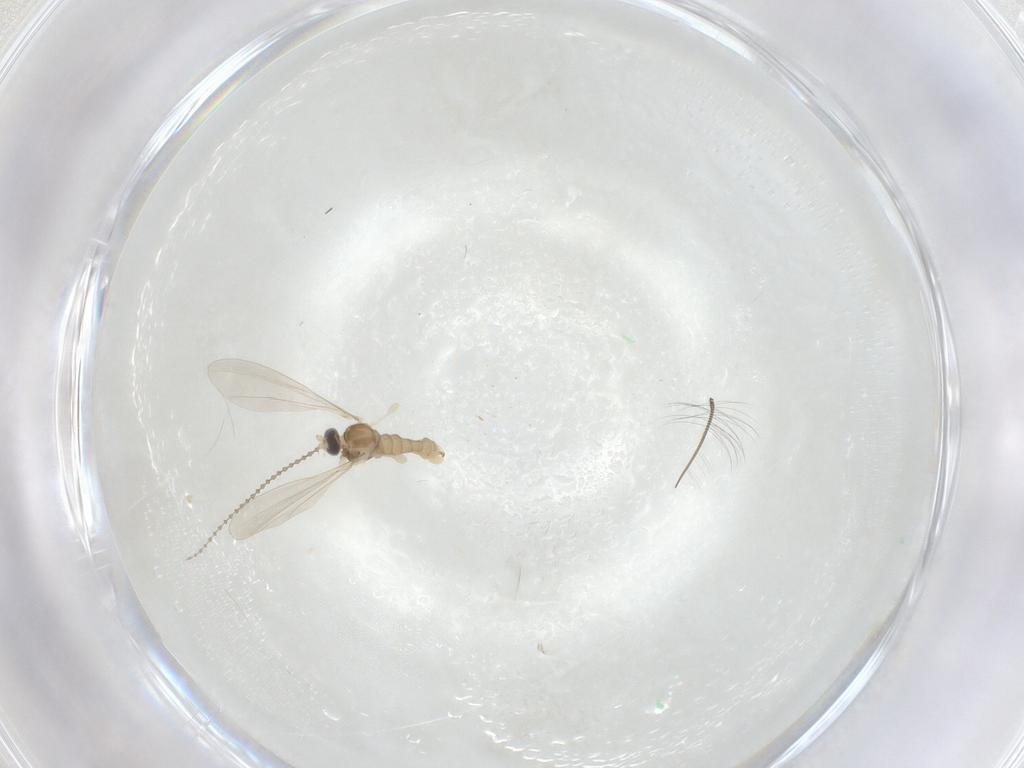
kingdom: Animalia
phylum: Arthropoda
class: Insecta
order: Diptera
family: Cecidomyiidae
